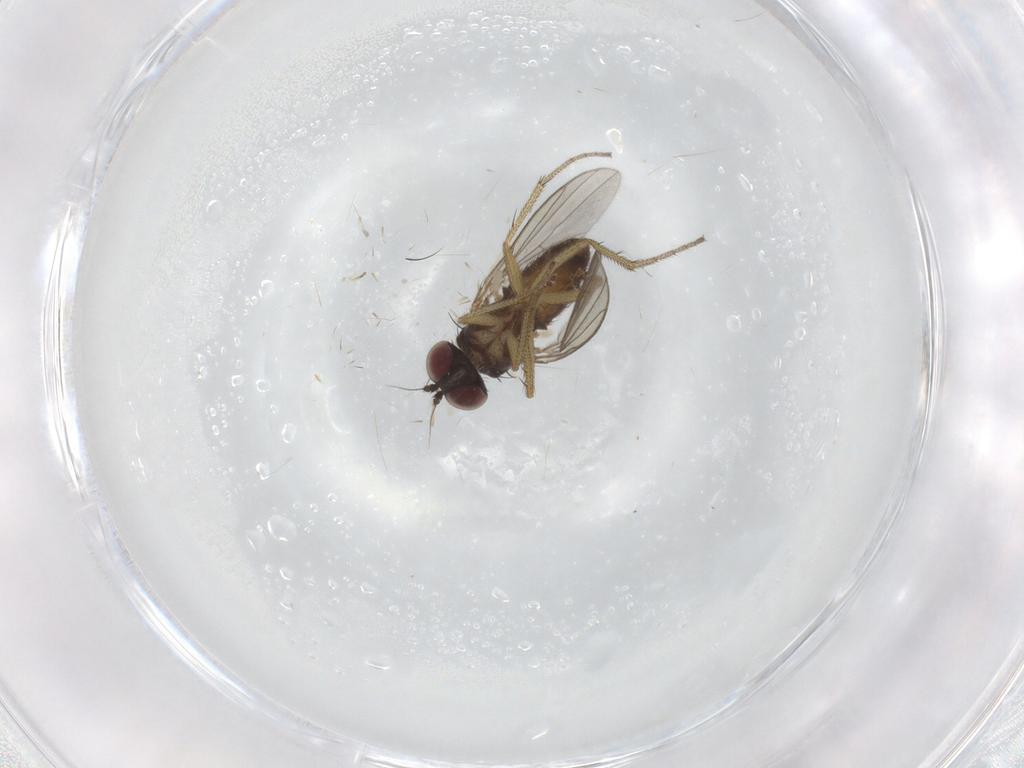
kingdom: Animalia
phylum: Arthropoda
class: Insecta
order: Diptera
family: Dolichopodidae
